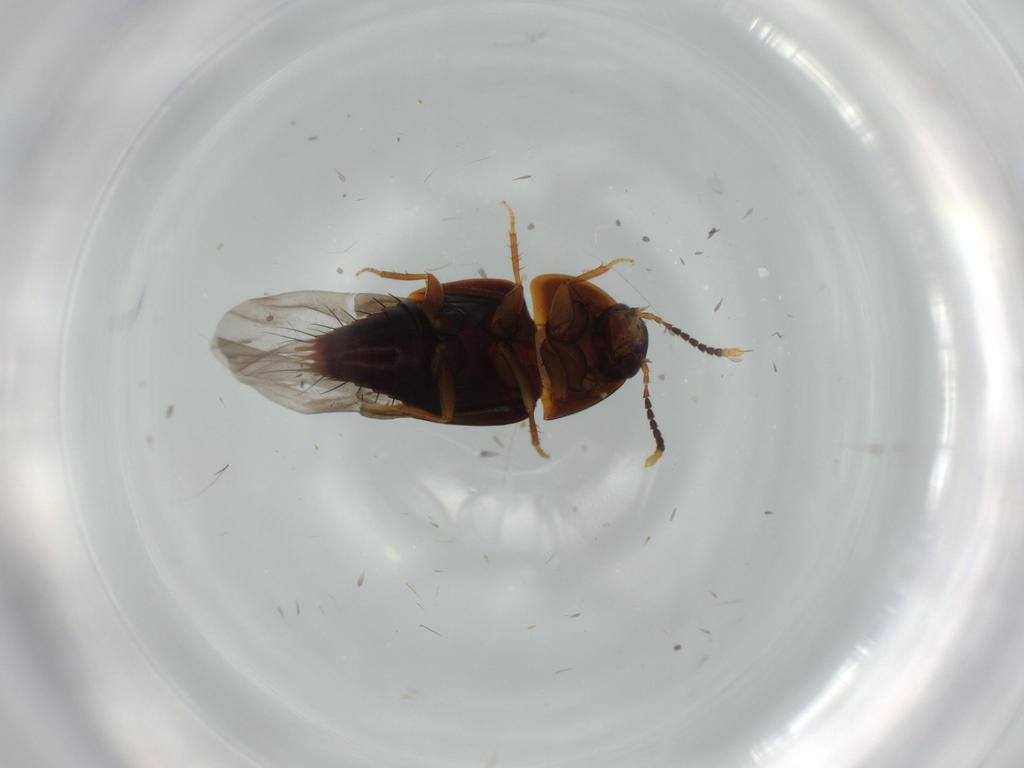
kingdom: Animalia
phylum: Arthropoda
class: Insecta
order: Coleoptera
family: Staphylinidae
